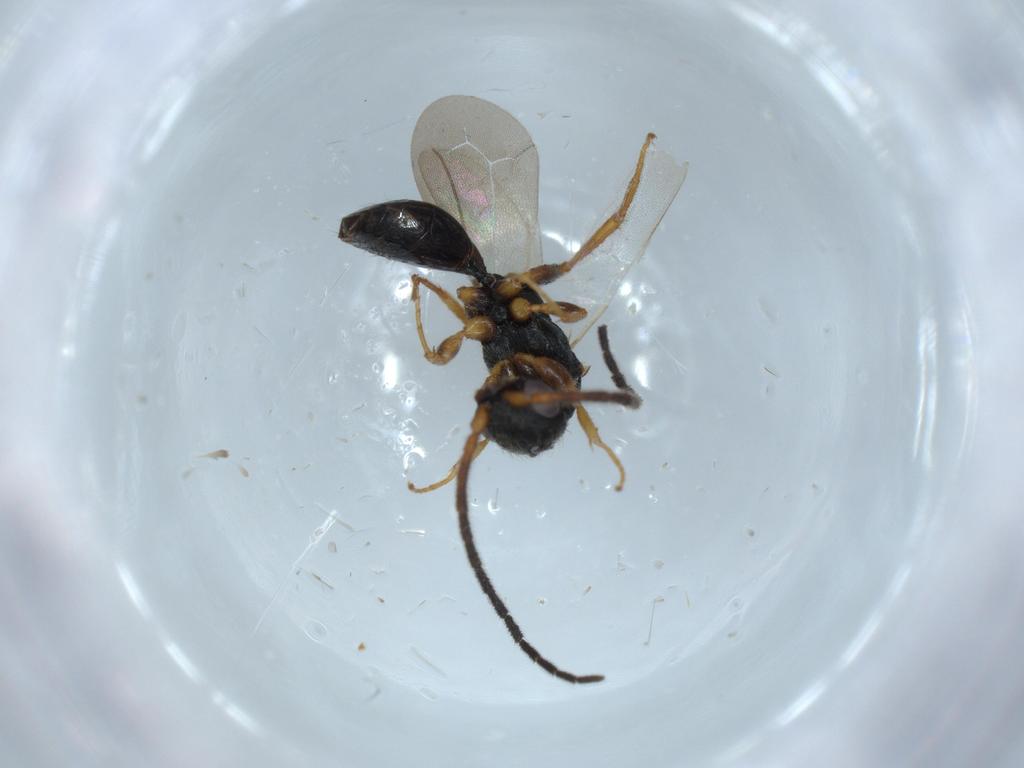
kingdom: Animalia
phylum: Arthropoda
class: Insecta
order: Hymenoptera
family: Bethylidae
